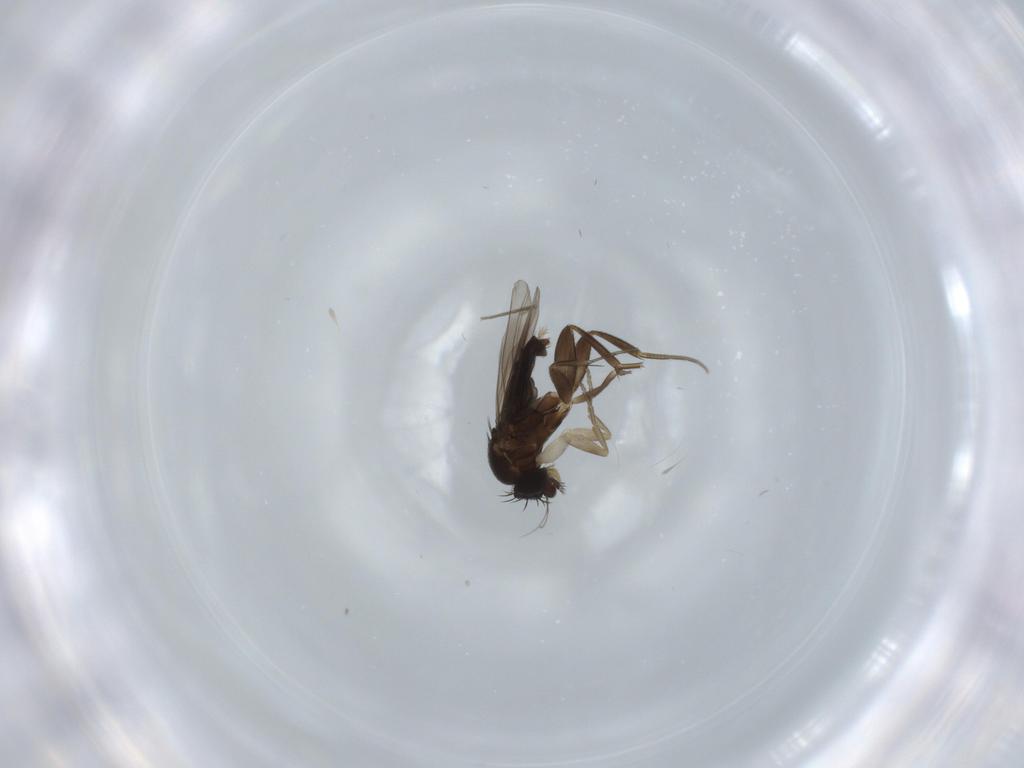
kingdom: Animalia
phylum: Arthropoda
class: Insecta
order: Diptera
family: Phoridae
